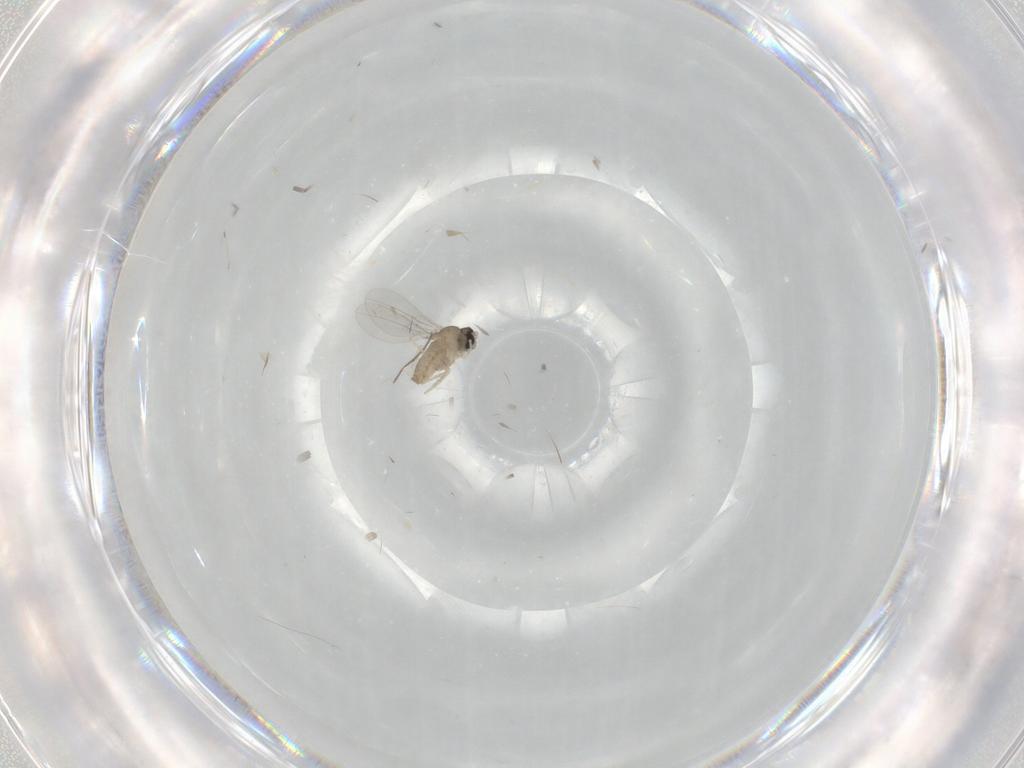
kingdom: Animalia
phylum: Arthropoda
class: Insecta
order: Diptera
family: Cecidomyiidae
